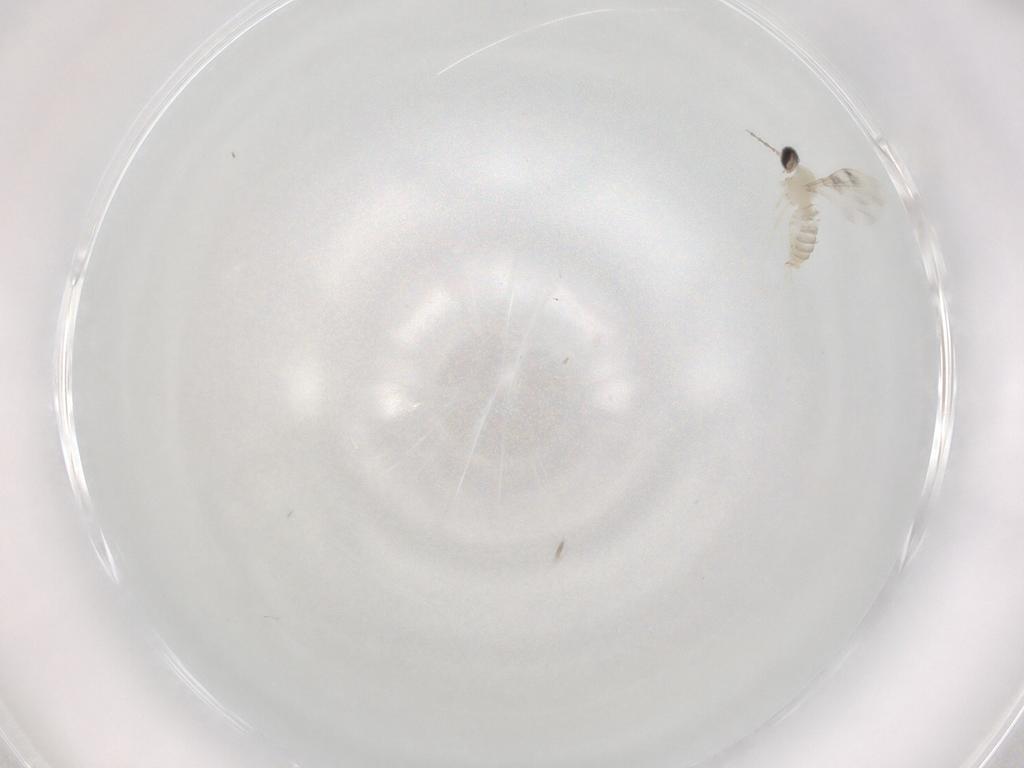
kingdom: Animalia
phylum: Arthropoda
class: Insecta
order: Diptera
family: Cecidomyiidae
